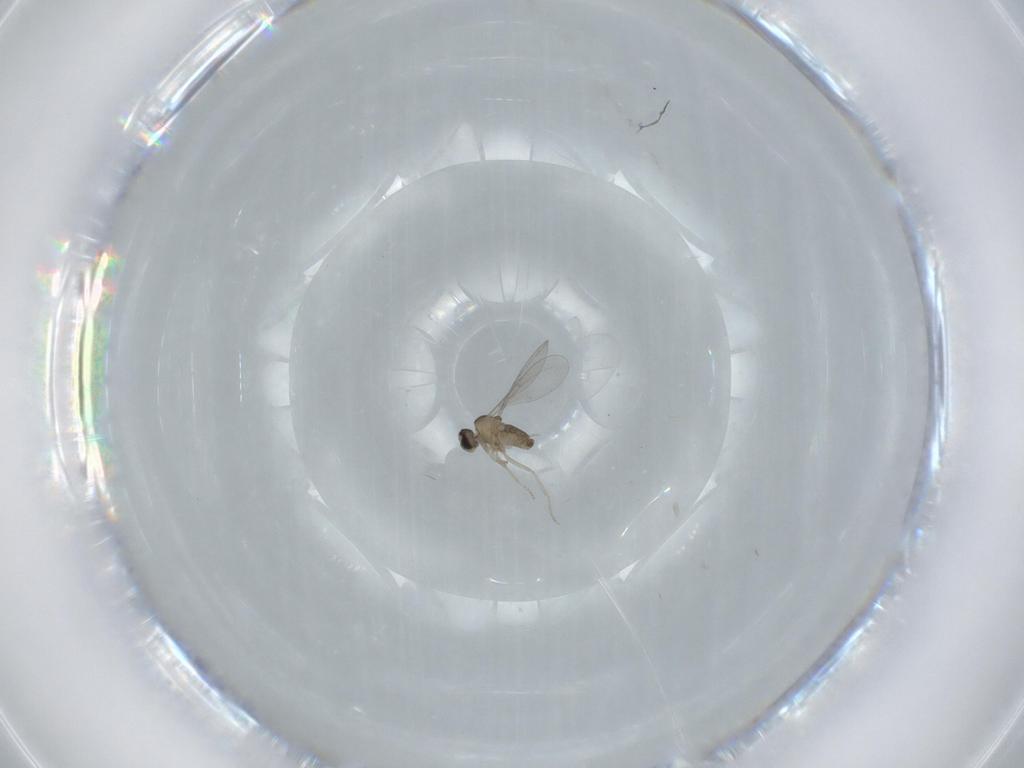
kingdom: Animalia
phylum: Arthropoda
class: Insecta
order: Diptera
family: Cecidomyiidae
